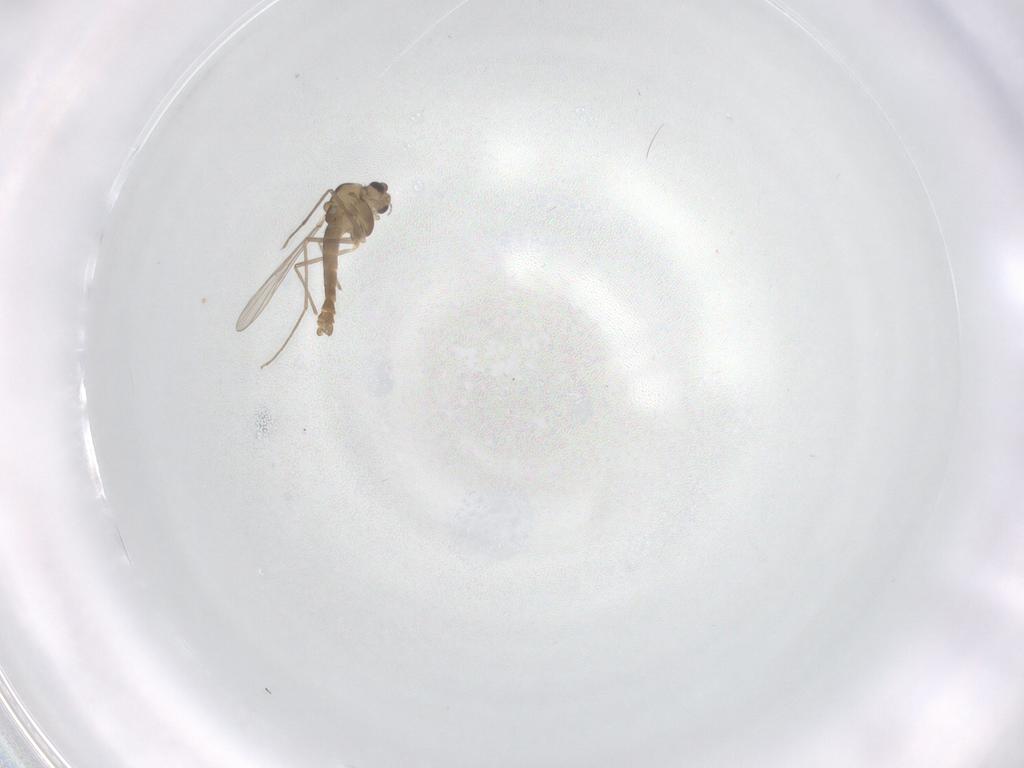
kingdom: Animalia
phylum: Arthropoda
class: Insecta
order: Diptera
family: Chironomidae
